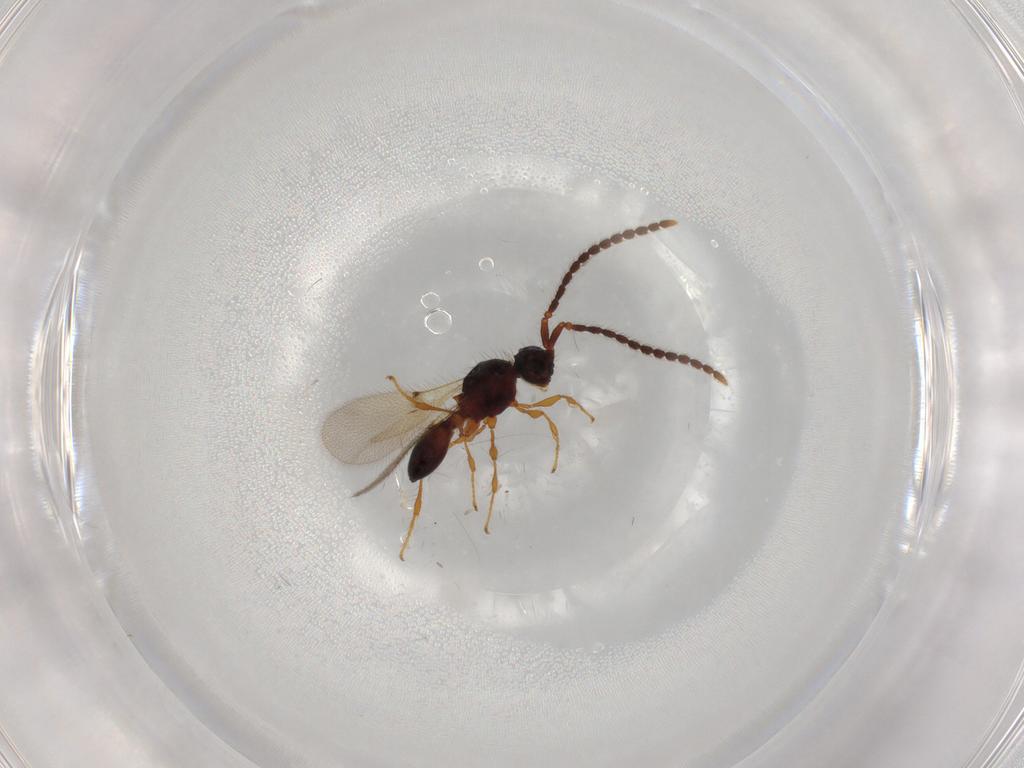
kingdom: Animalia
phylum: Arthropoda
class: Insecta
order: Hymenoptera
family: Diapriidae
